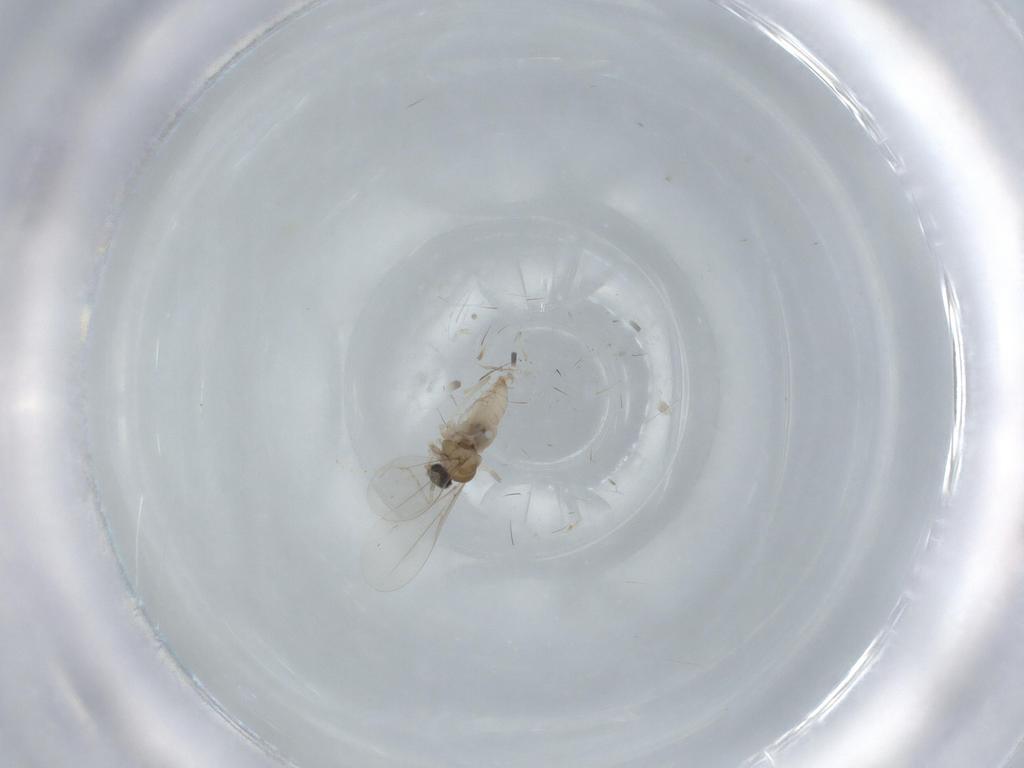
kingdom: Animalia
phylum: Arthropoda
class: Insecta
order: Diptera
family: Cecidomyiidae
